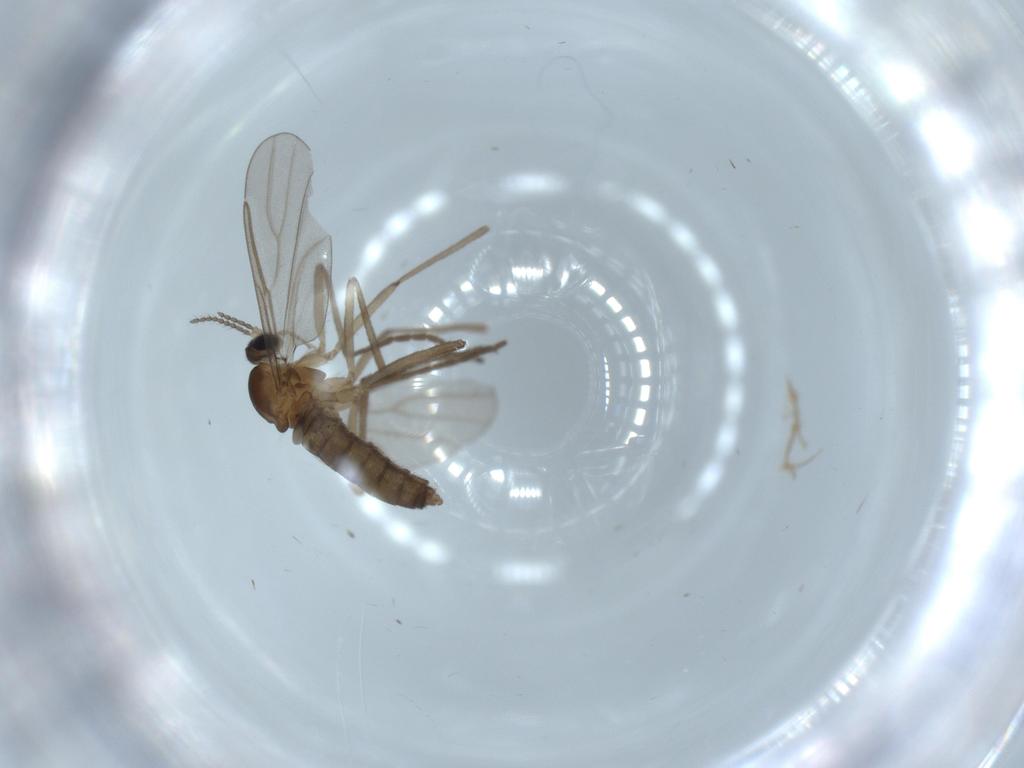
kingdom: Animalia
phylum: Arthropoda
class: Insecta
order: Diptera
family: Cecidomyiidae
